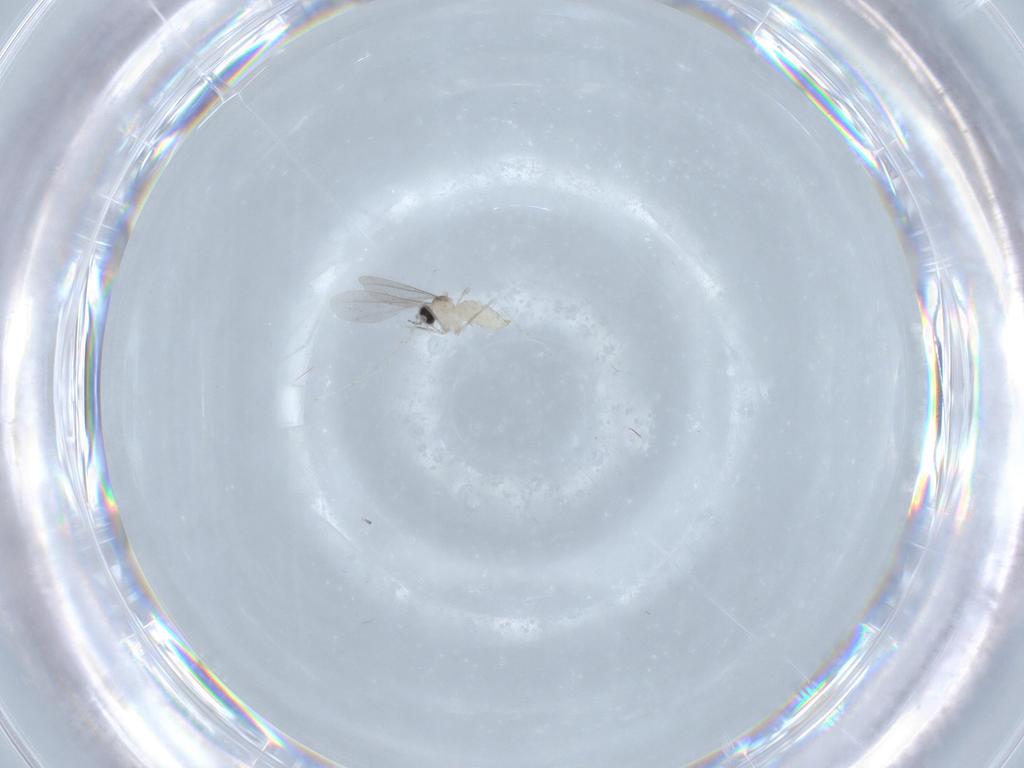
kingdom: Animalia
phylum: Arthropoda
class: Insecta
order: Diptera
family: Cecidomyiidae
